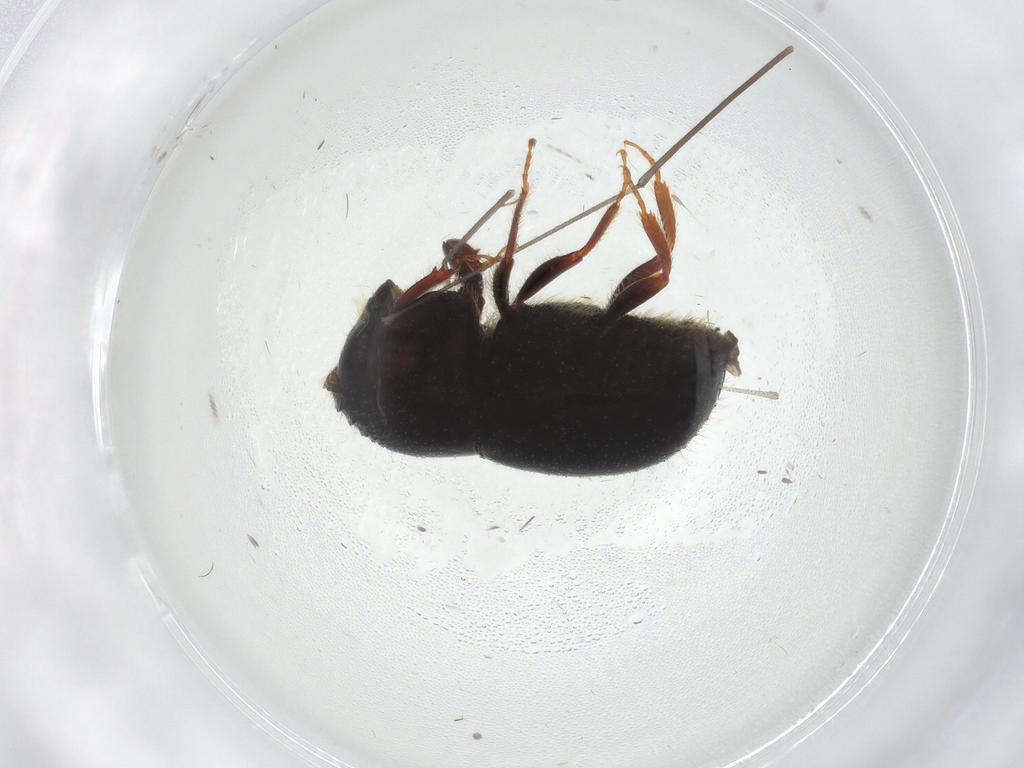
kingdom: Animalia
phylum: Arthropoda
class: Insecta
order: Coleoptera
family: Curculionidae
